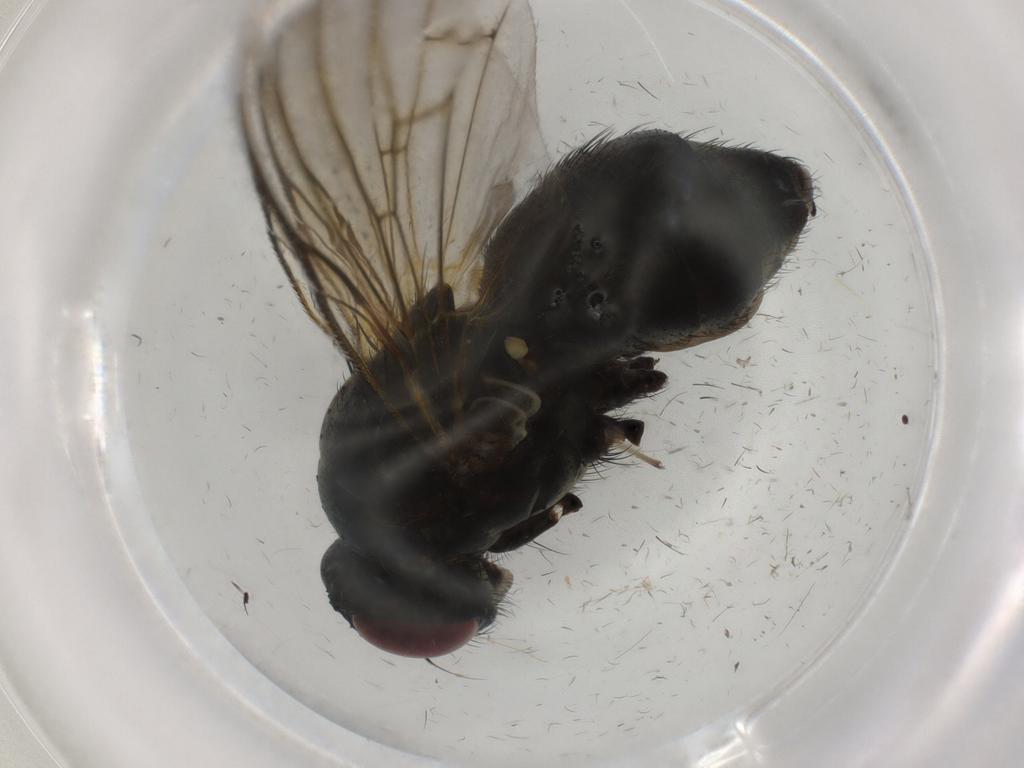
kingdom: Animalia
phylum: Arthropoda
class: Insecta
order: Diptera
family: Muscidae
